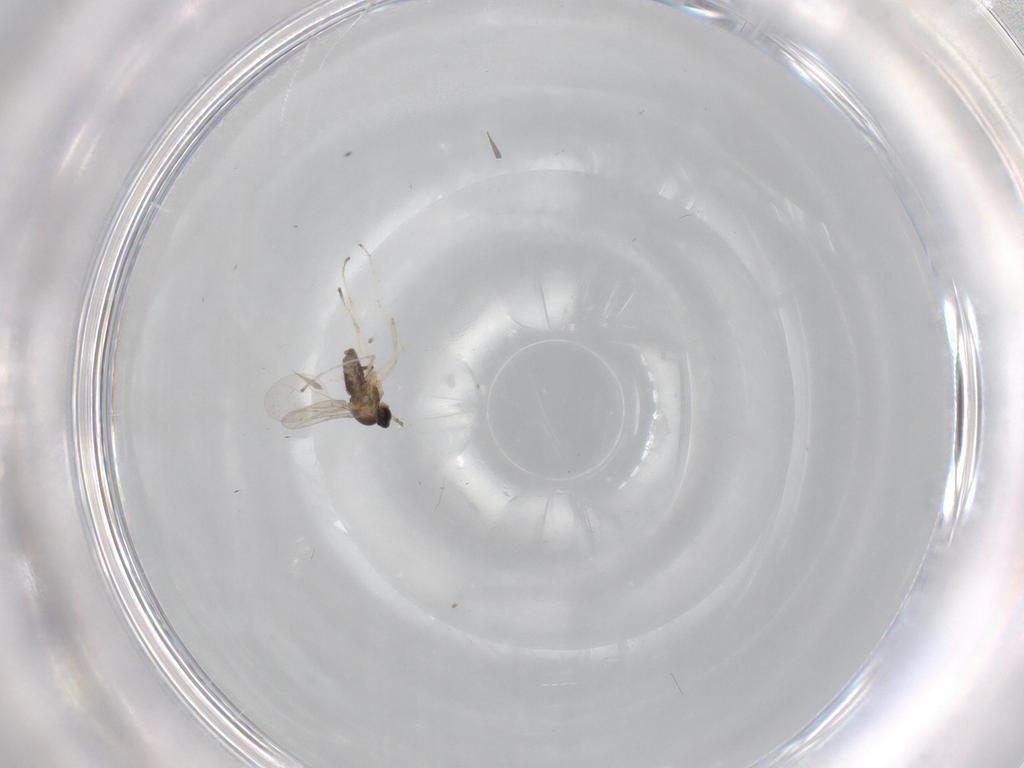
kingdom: Animalia
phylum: Arthropoda
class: Insecta
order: Diptera
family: Cecidomyiidae
